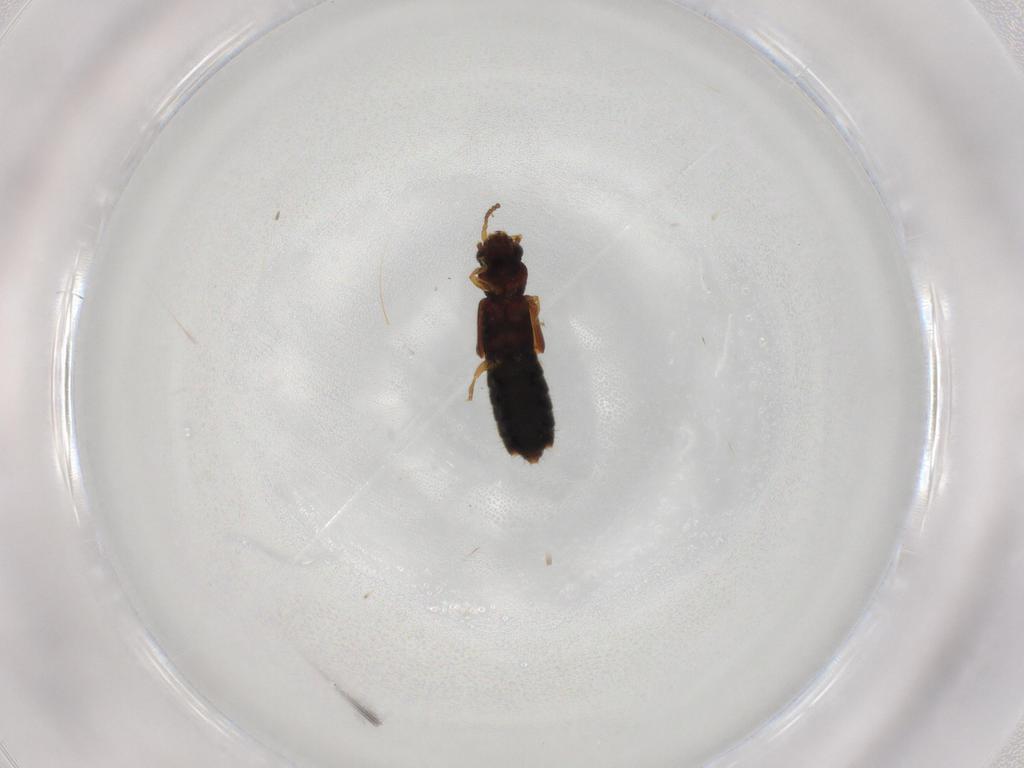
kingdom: Animalia
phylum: Arthropoda
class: Insecta
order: Coleoptera
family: Staphylinidae
